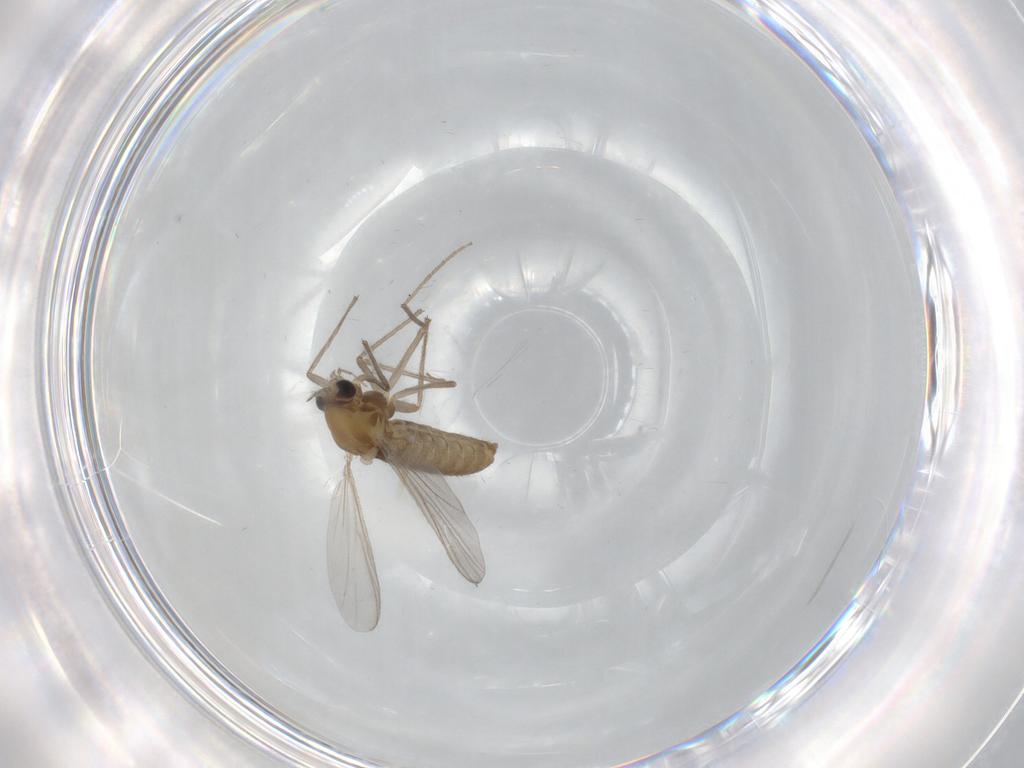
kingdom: Animalia
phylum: Arthropoda
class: Insecta
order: Diptera
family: Chironomidae
